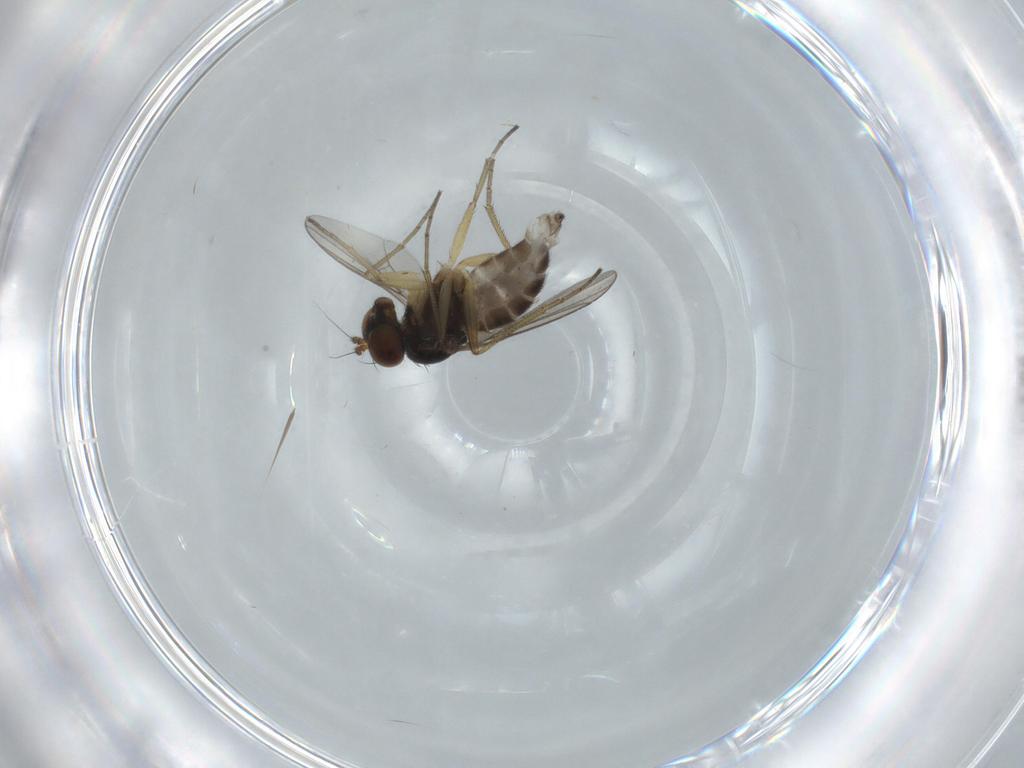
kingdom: Animalia
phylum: Arthropoda
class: Insecta
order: Diptera
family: Dolichopodidae
